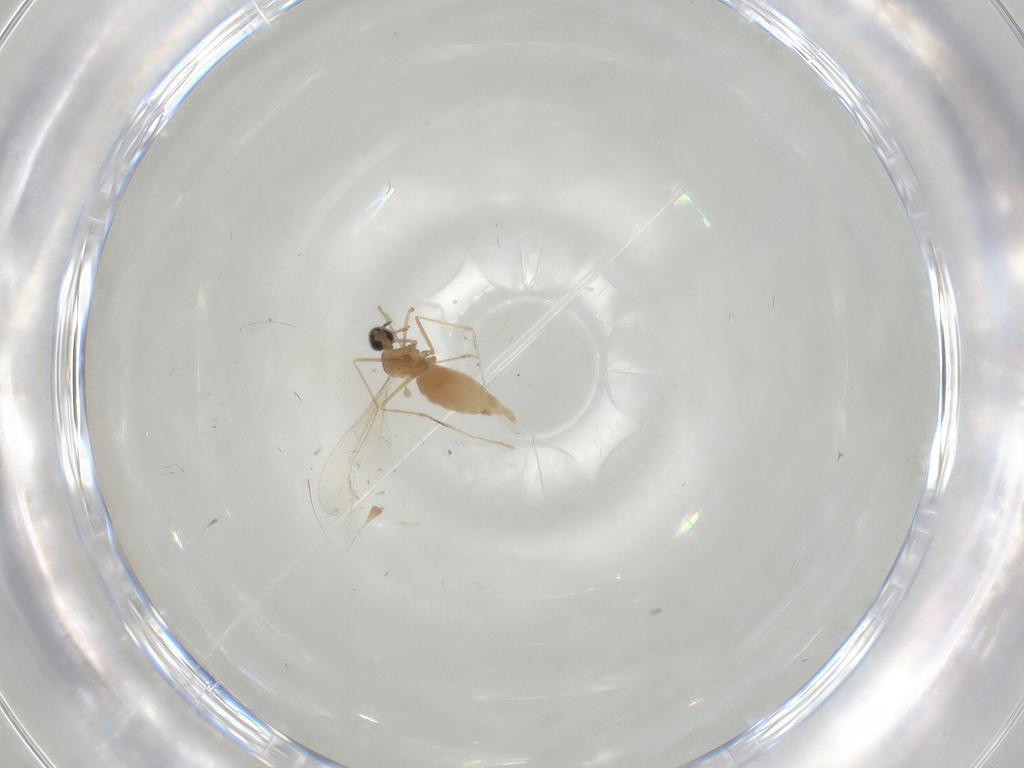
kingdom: Animalia
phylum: Arthropoda
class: Insecta
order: Diptera
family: Cecidomyiidae
